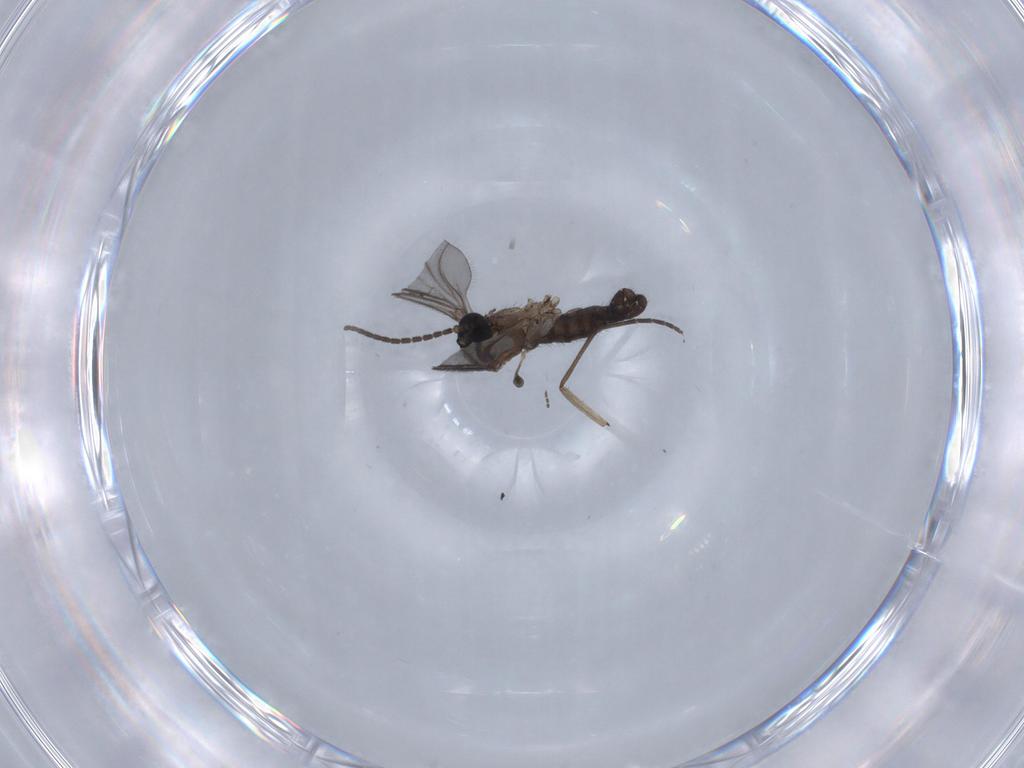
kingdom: Animalia
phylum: Arthropoda
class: Insecta
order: Diptera
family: Sciaridae
